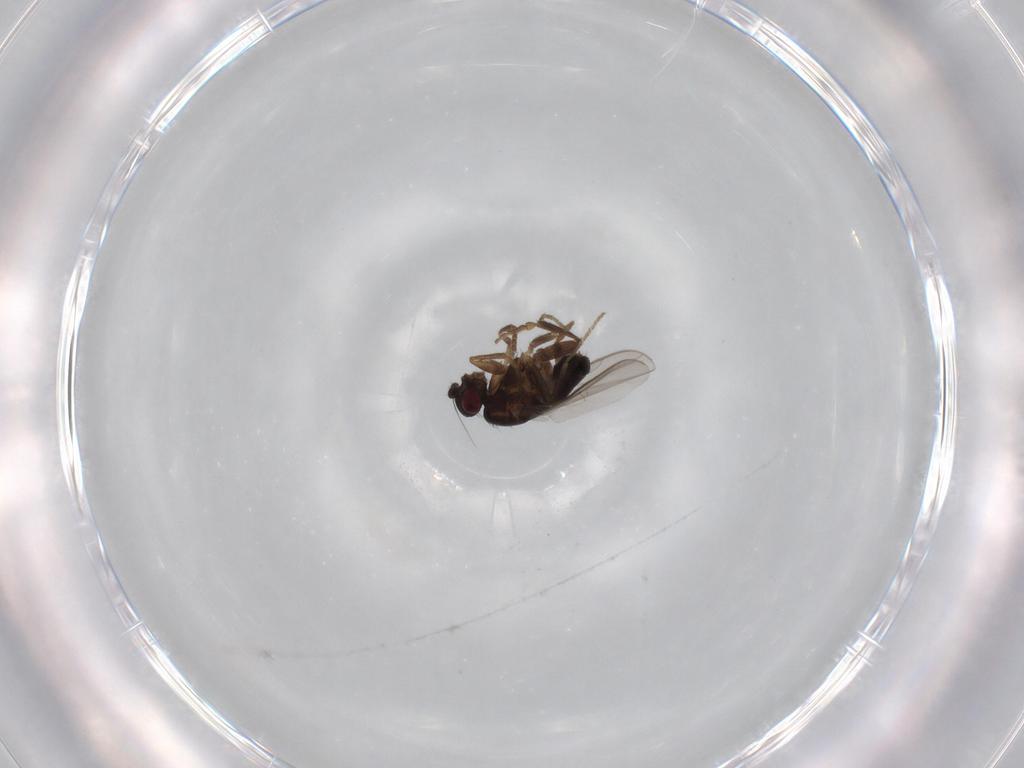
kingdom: Animalia
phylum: Arthropoda
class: Insecta
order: Diptera
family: Sphaeroceridae
